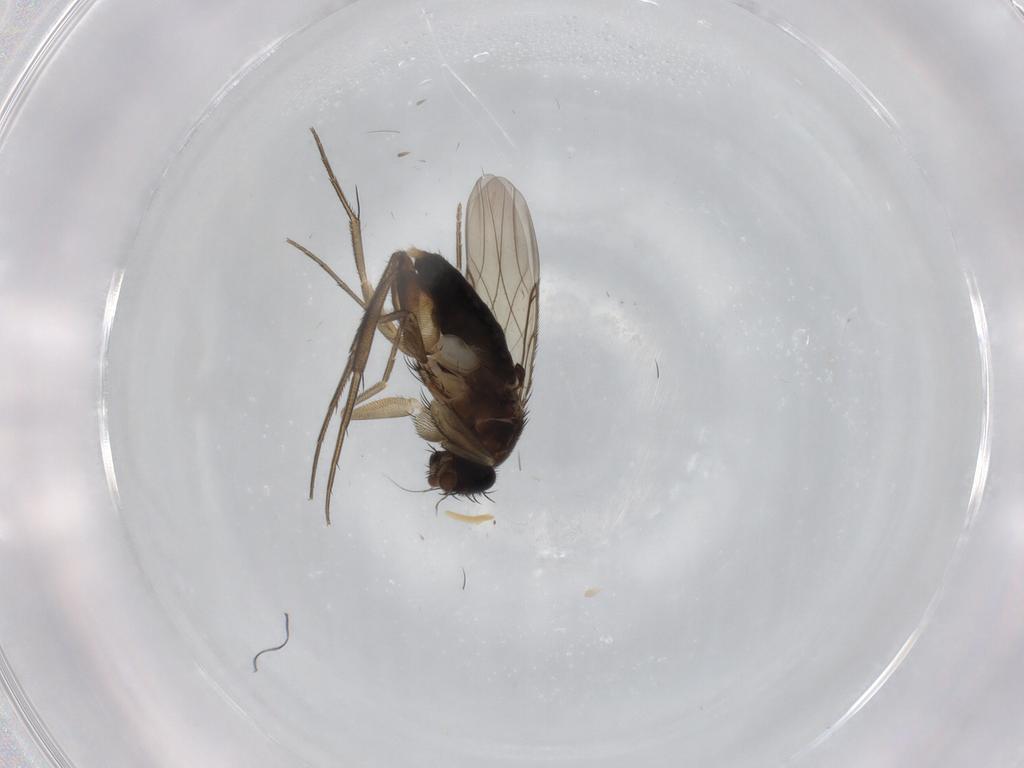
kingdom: Animalia
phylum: Arthropoda
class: Insecta
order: Diptera
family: Phoridae
